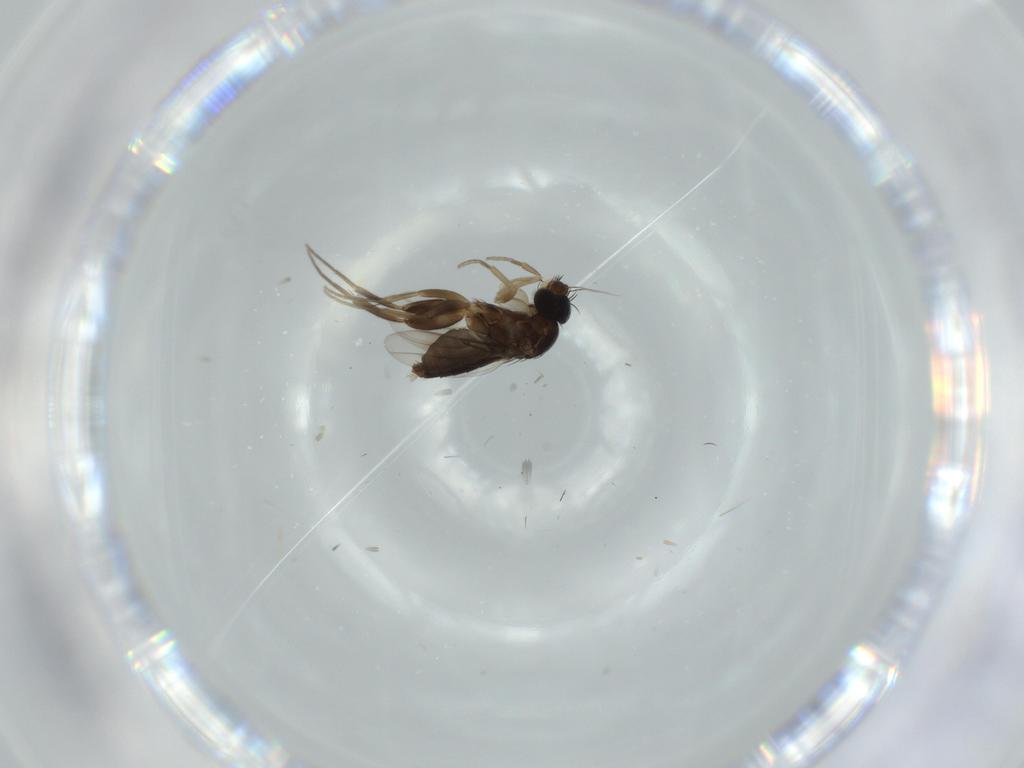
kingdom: Animalia
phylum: Arthropoda
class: Insecta
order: Diptera
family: Phoridae
